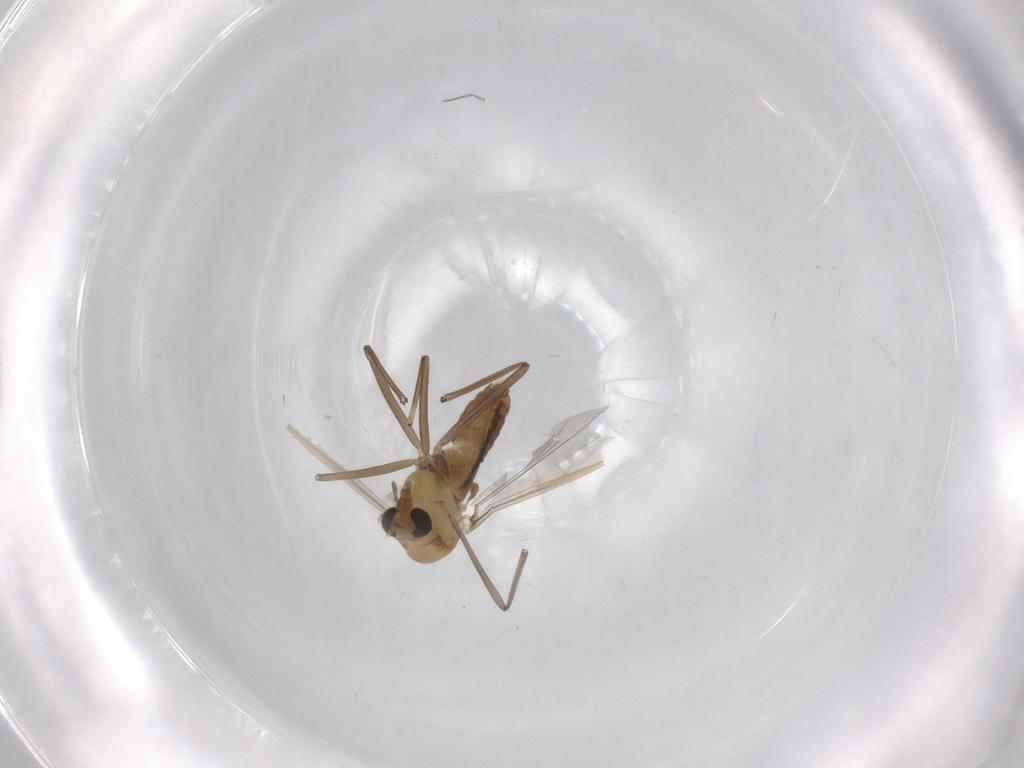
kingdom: Animalia
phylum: Arthropoda
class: Insecta
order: Diptera
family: Chironomidae
